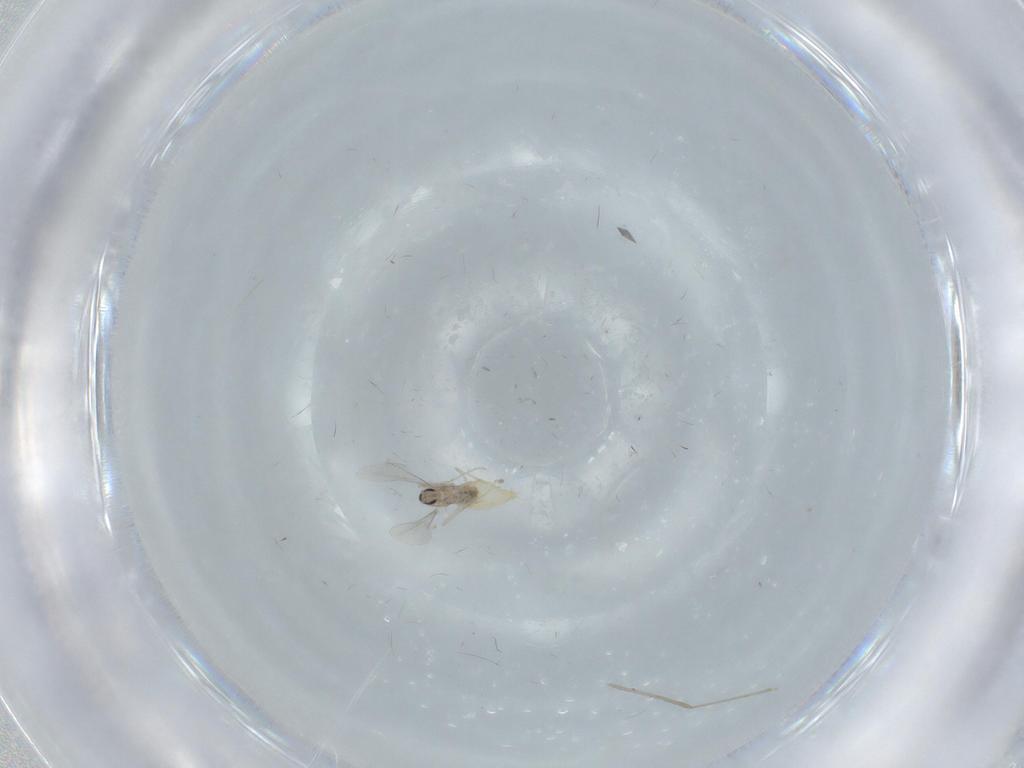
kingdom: Animalia
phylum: Arthropoda
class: Insecta
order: Diptera
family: Cecidomyiidae
